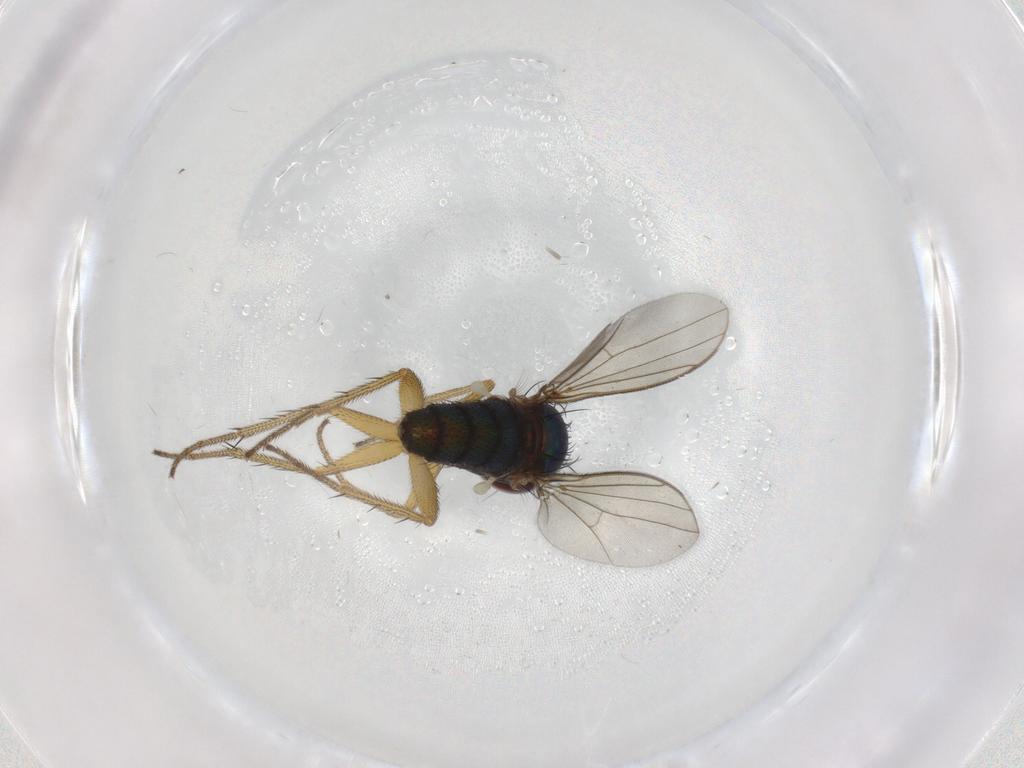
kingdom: Animalia
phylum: Arthropoda
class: Insecta
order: Diptera
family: Dolichopodidae
